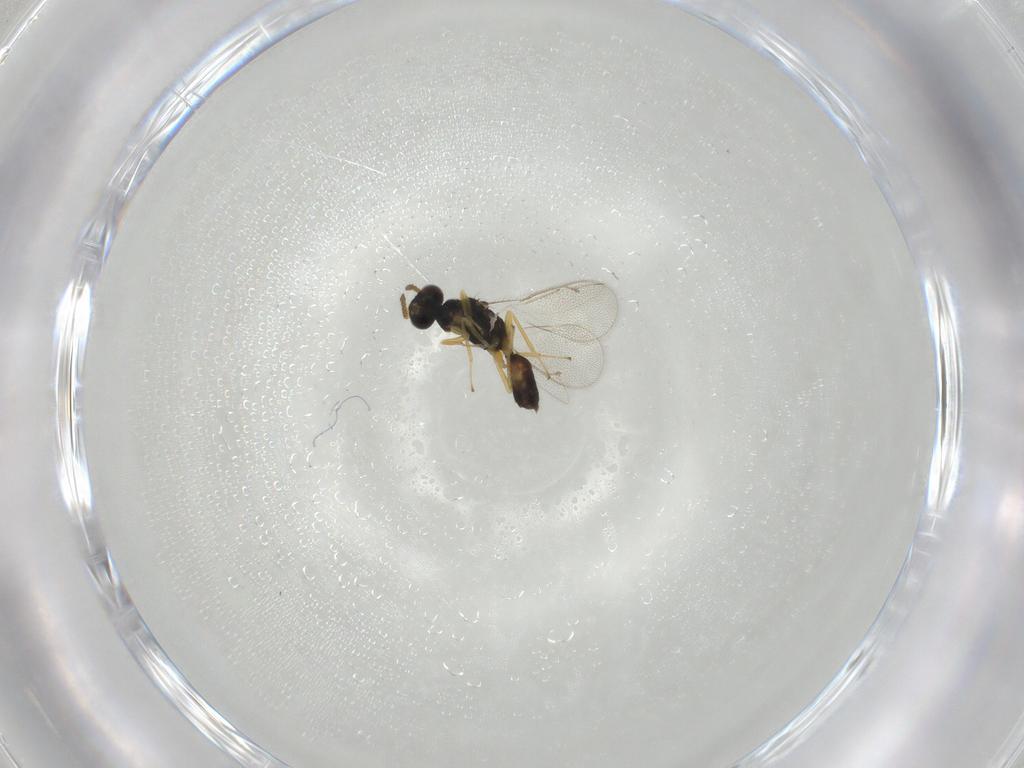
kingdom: Animalia
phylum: Arthropoda
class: Insecta
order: Hymenoptera
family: Eulophidae
